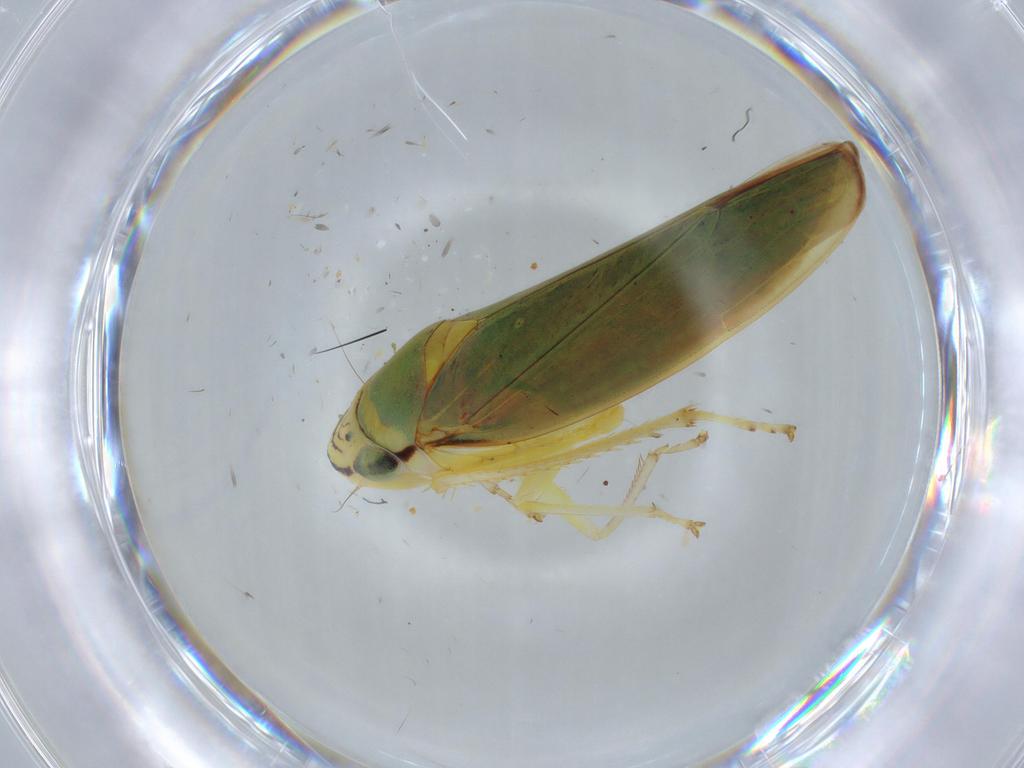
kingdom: Animalia
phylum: Arthropoda
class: Insecta
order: Hemiptera
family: Cicadellidae
